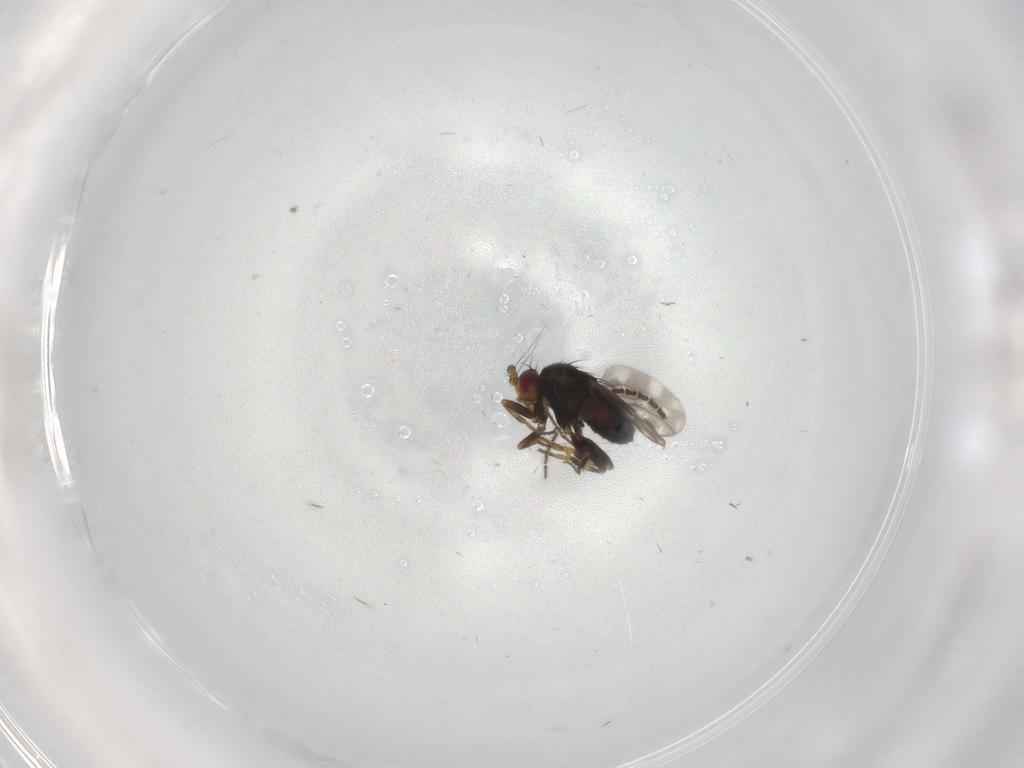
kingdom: Animalia
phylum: Arthropoda
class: Insecta
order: Diptera
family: Sphaeroceridae
